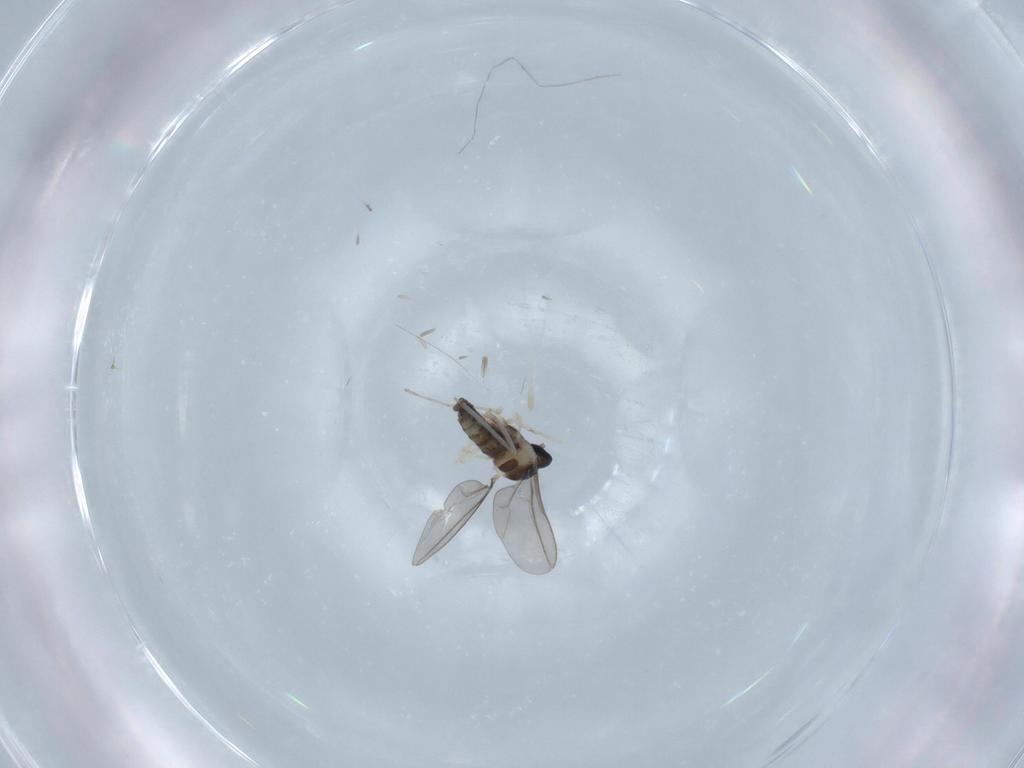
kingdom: Animalia
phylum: Arthropoda
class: Insecta
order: Diptera
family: Cecidomyiidae
